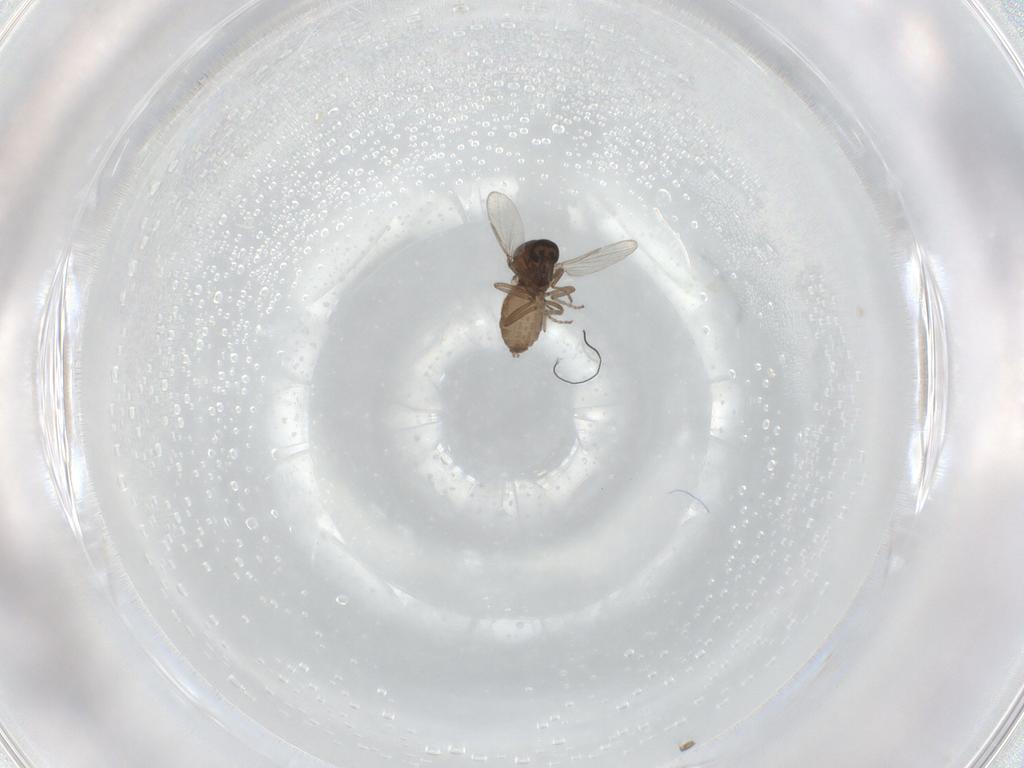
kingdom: Animalia
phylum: Arthropoda
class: Insecta
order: Diptera
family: Ceratopogonidae
